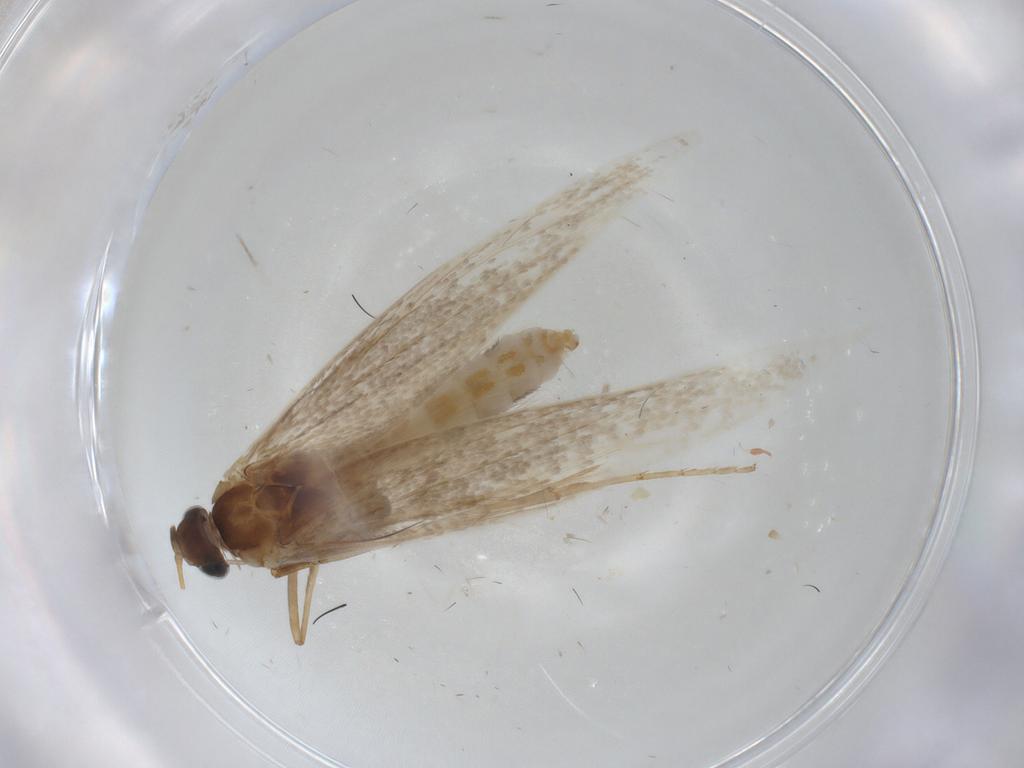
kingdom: Animalia
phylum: Arthropoda
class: Insecta
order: Lepidoptera
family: Coleophoridae
